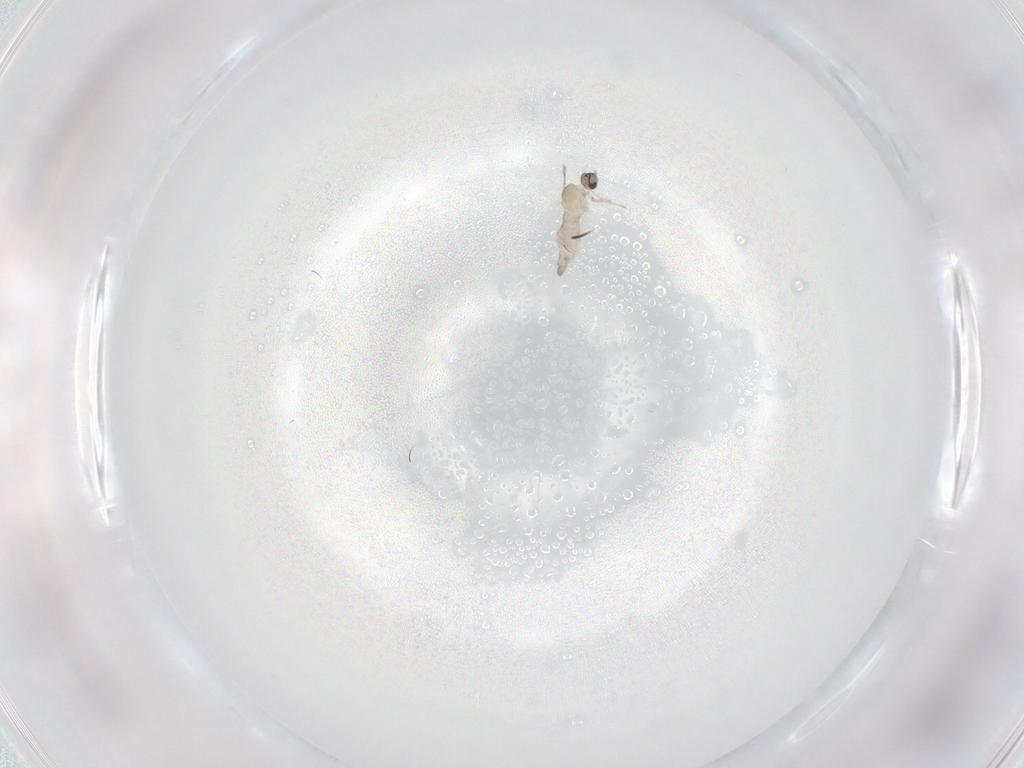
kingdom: Animalia
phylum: Arthropoda
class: Insecta
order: Diptera
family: Cecidomyiidae
